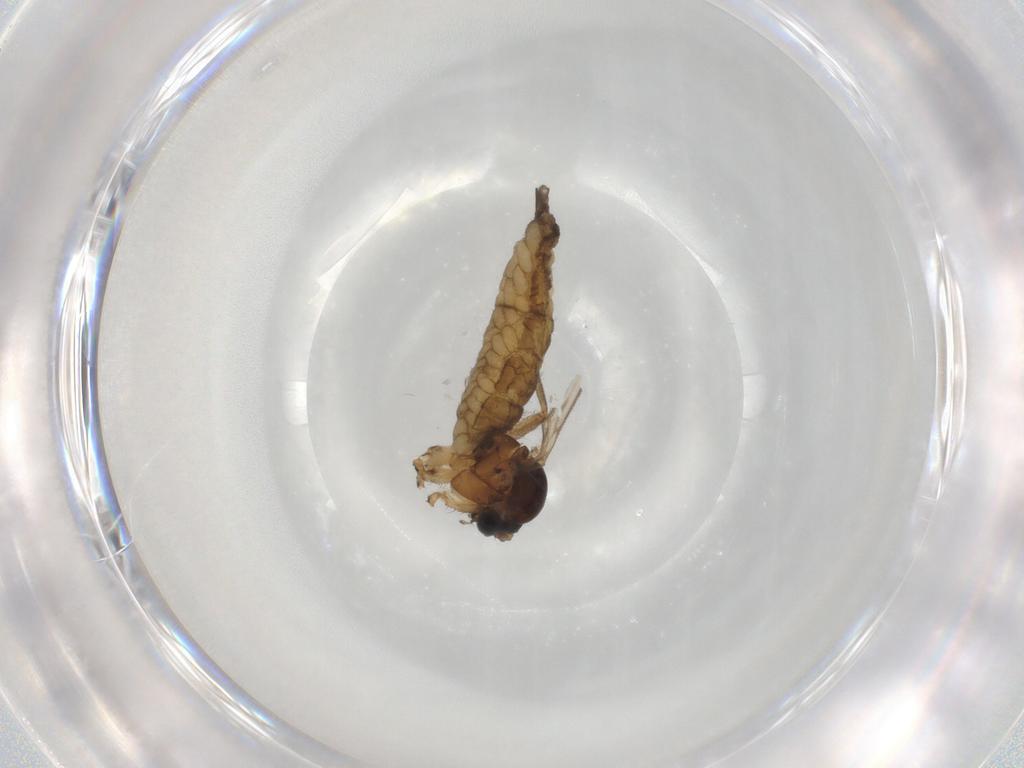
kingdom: Animalia
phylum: Arthropoda
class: Insecta
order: Diptera
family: Sciaridae
